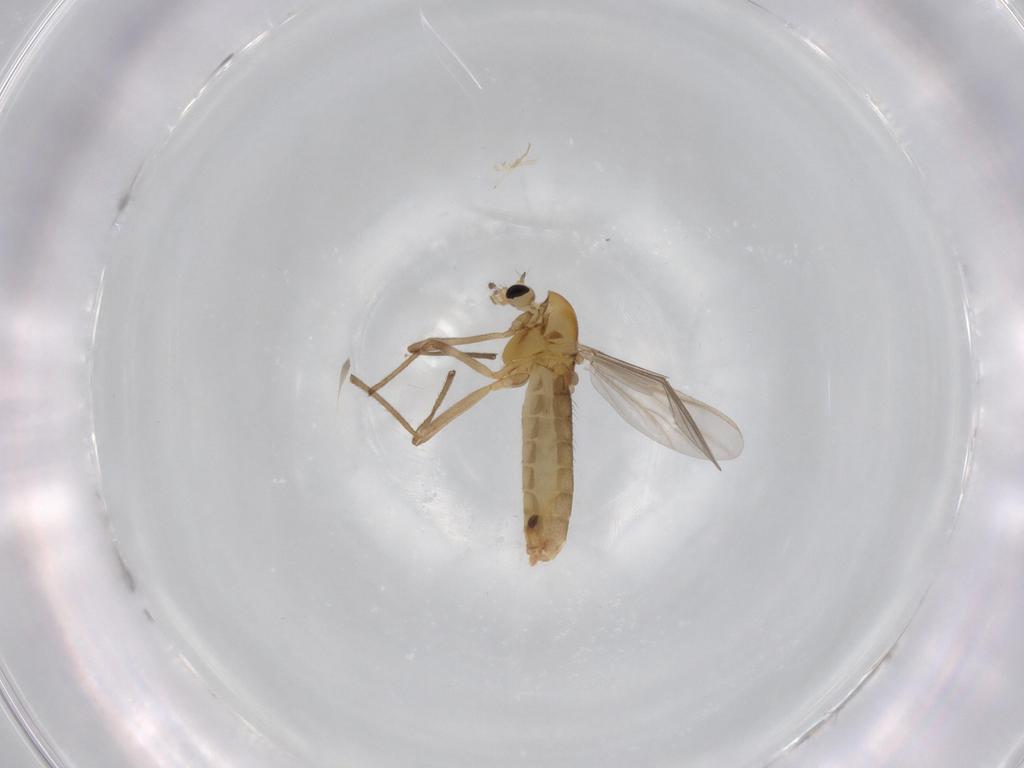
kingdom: Animalia
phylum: Arthropoda
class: Insecta
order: Diptera
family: Chironomidae
